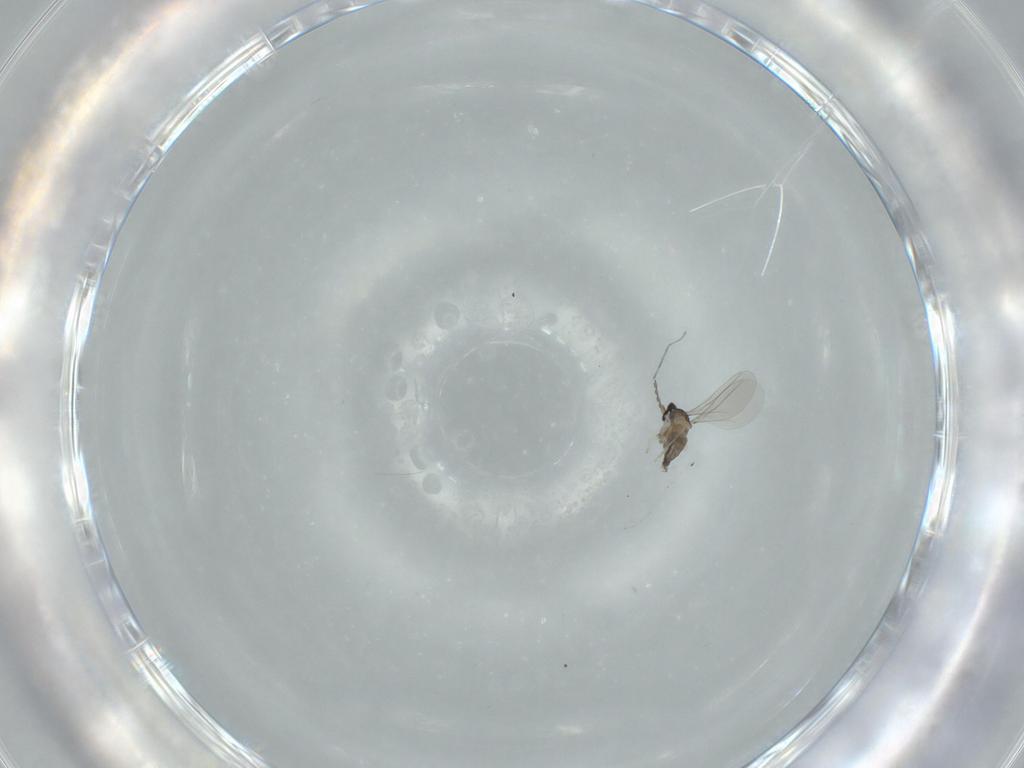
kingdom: Animalia
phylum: Arthropoda
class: Insecta
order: Diptera
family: Cecidomyiidae
